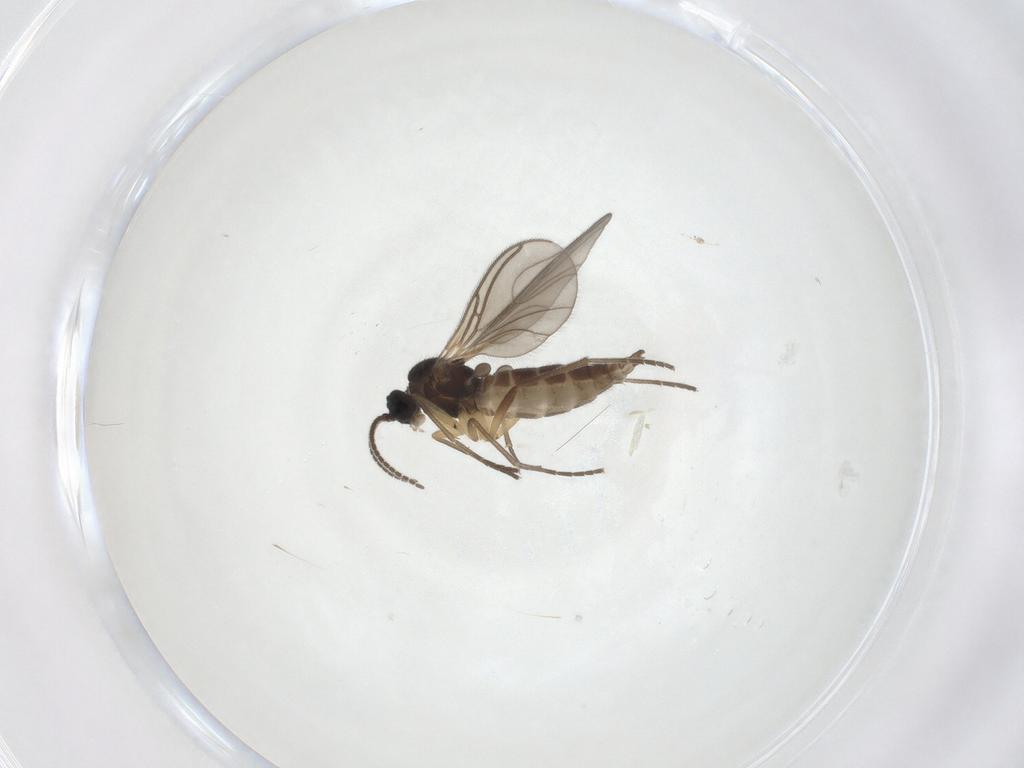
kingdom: Animalia
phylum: Arthropoda
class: Insecta
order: Diptera
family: Sciaridae
